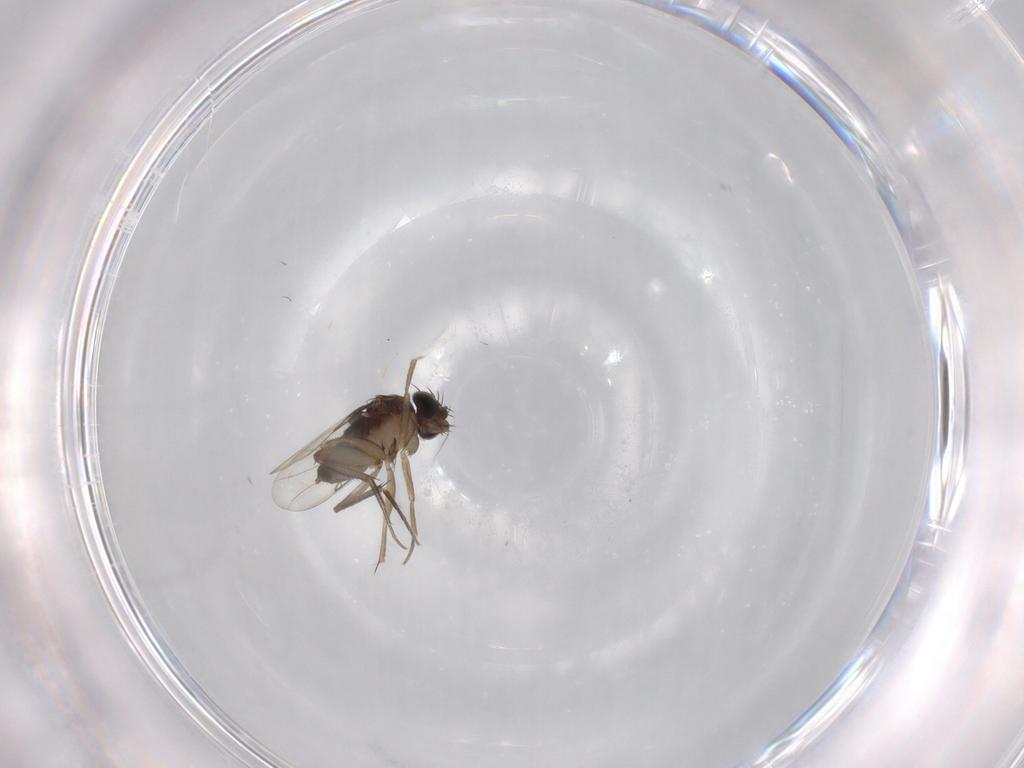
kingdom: Animalia
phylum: Arthropoda
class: Insecta
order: Diptera
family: Phoridae
